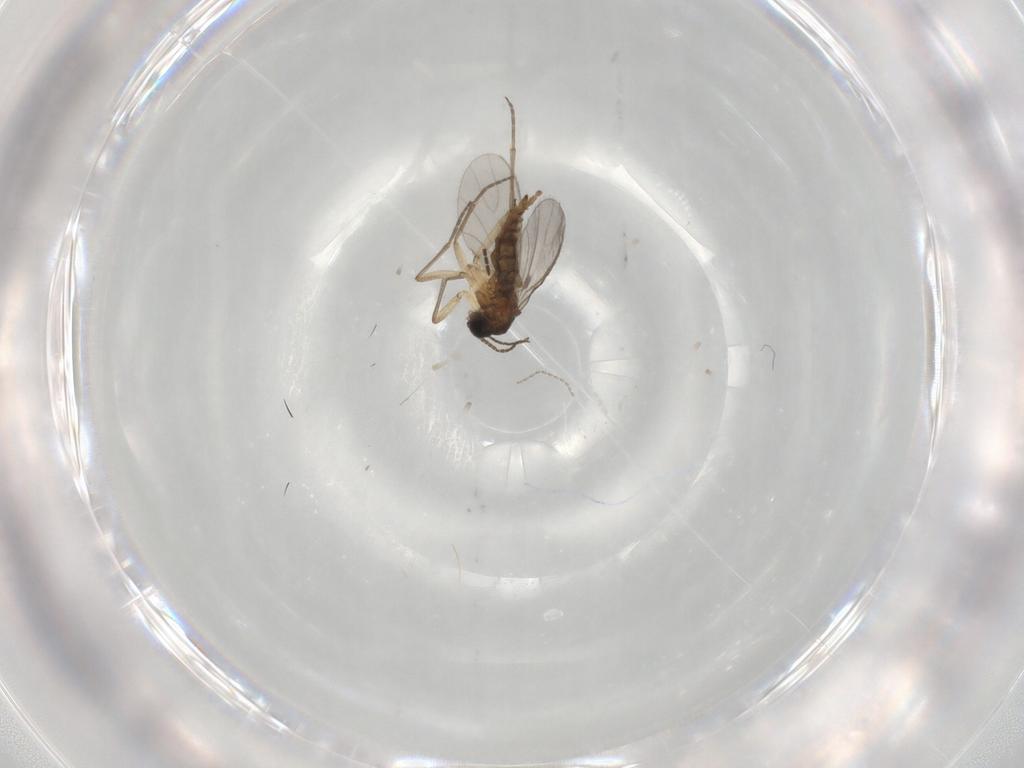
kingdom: Animalia
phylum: Arthropoda
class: Insecta
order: Diptera
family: Sciaridae
